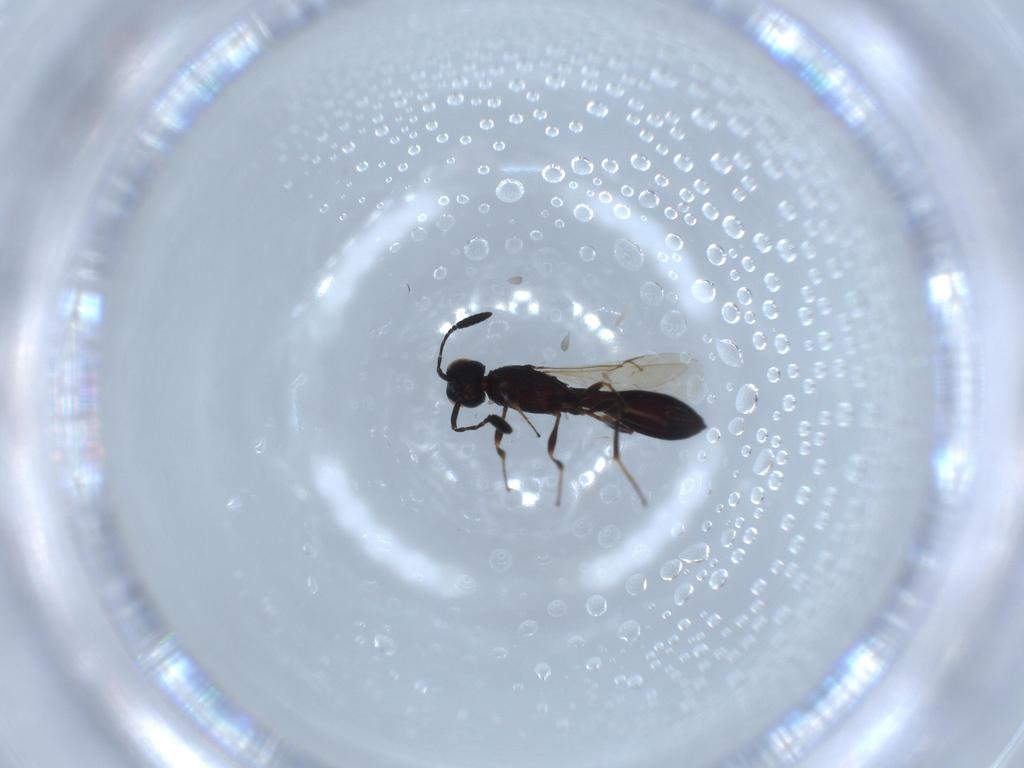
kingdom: Animalia
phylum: Arthropoda
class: Insecta
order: Hymenoptera
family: Scelionidae
